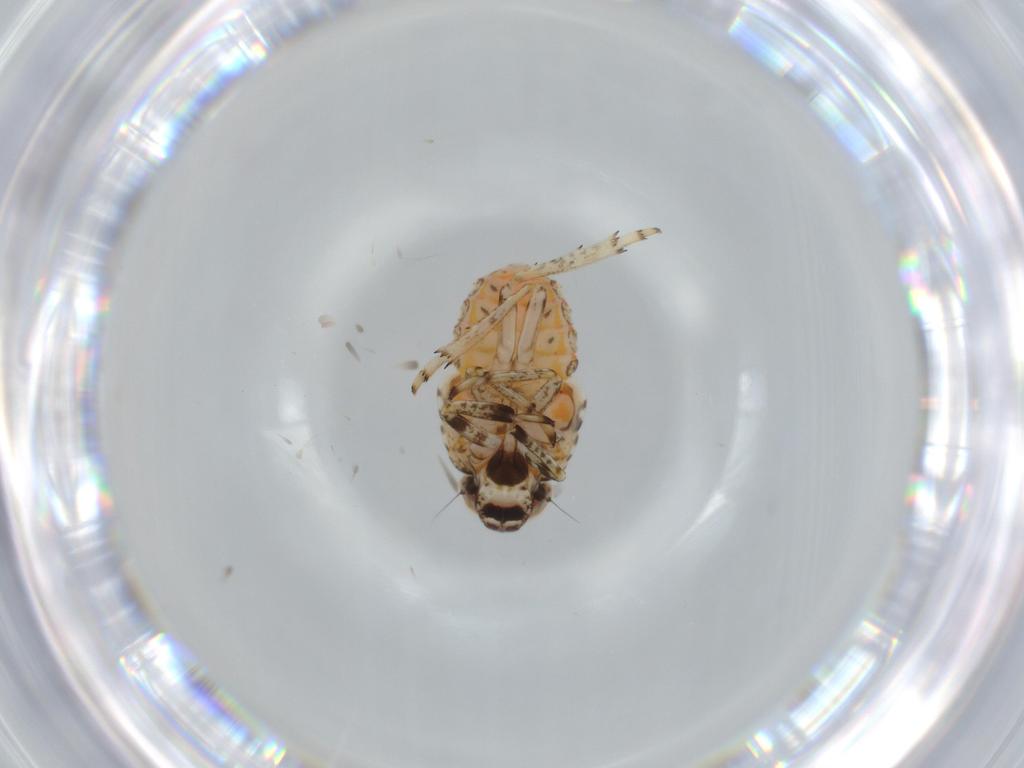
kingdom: Animalia
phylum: Arthropoda
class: Insecta
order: Hemiptera
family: Issidae
